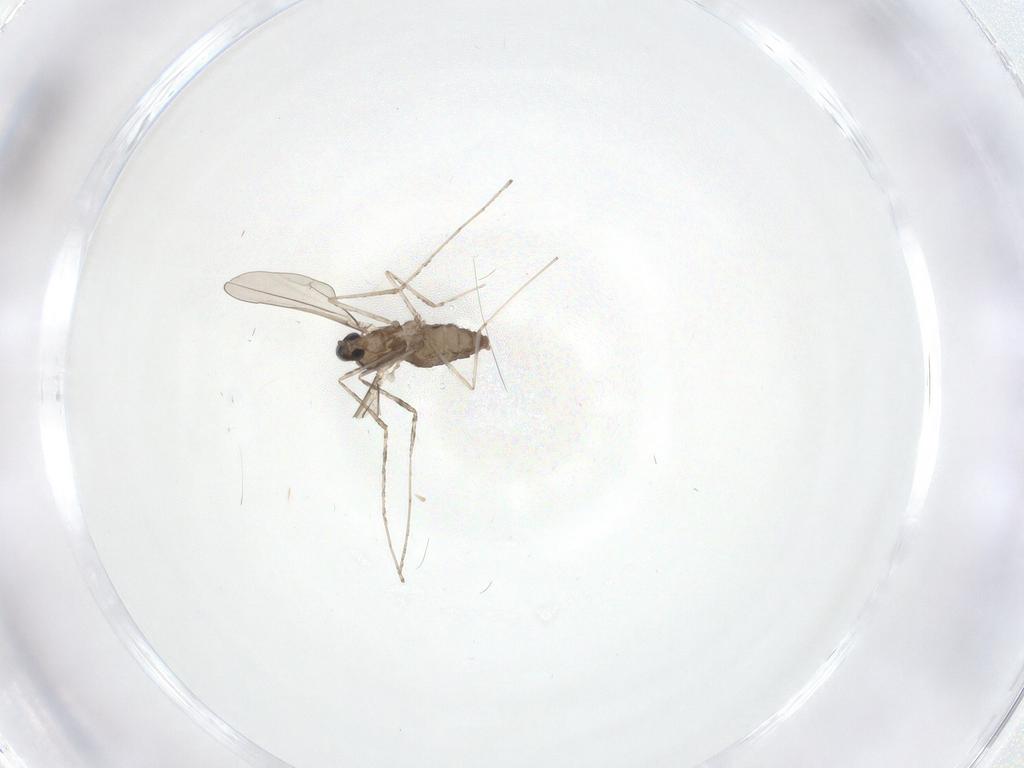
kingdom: Animalia
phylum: Arthropoda
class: Insecta
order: Diptera
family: Cecidomyiidae
